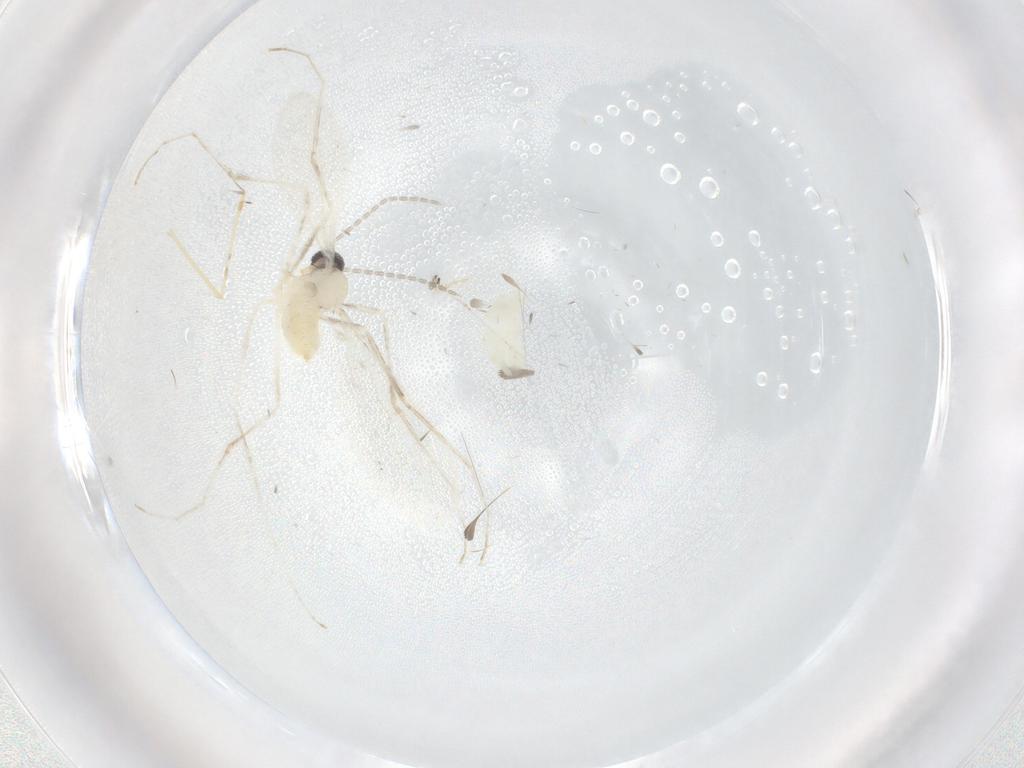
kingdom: Animalia
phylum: Arthropoda
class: Insecta
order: Diptera
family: Cecidomyiidae
